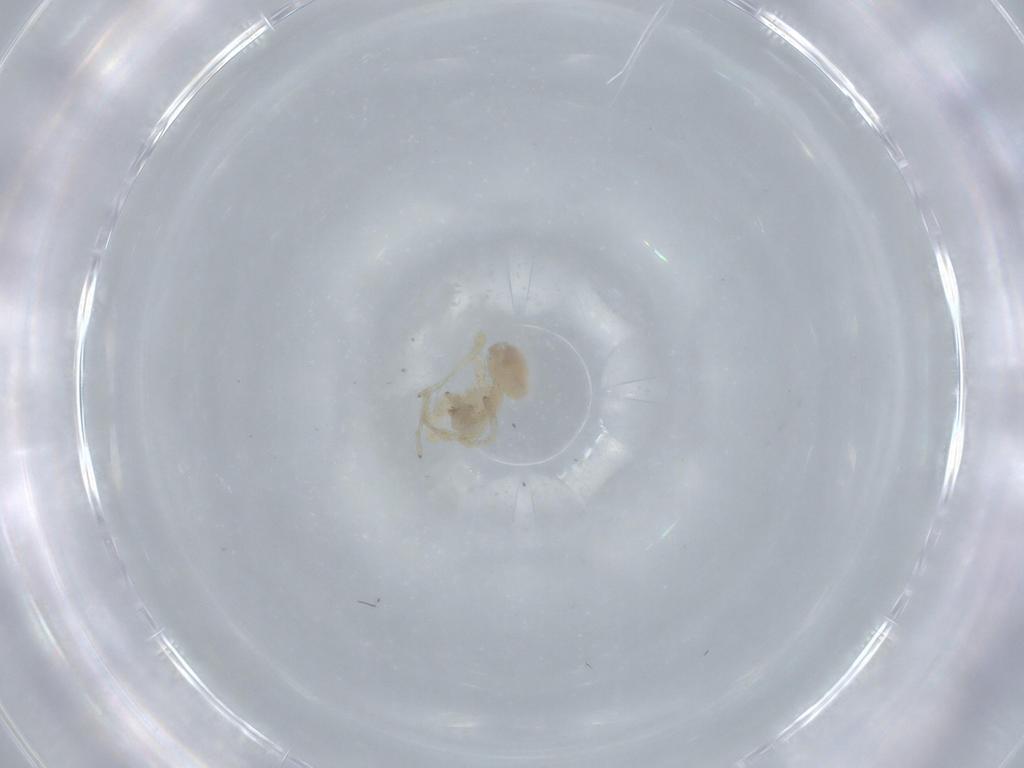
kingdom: Animalia
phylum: Arthropoda
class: Arachnida
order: Araneae
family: Oonopidae
